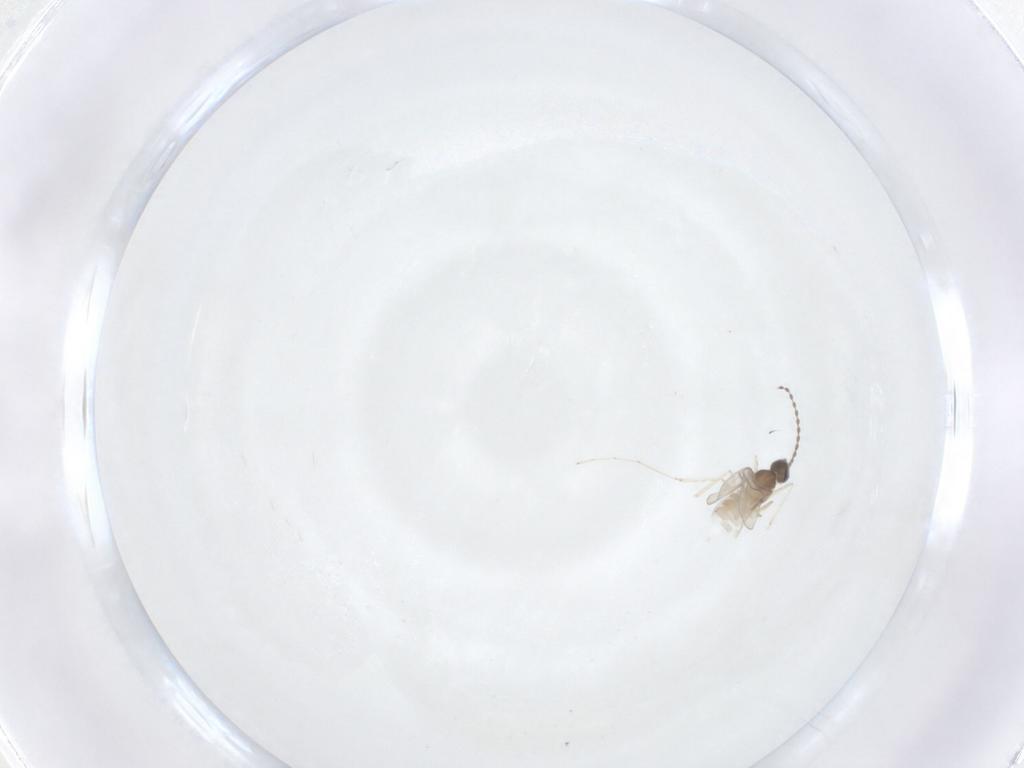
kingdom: Animalia
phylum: Arthropoda
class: Insecta
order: Diptera
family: Cecidomyiidae
